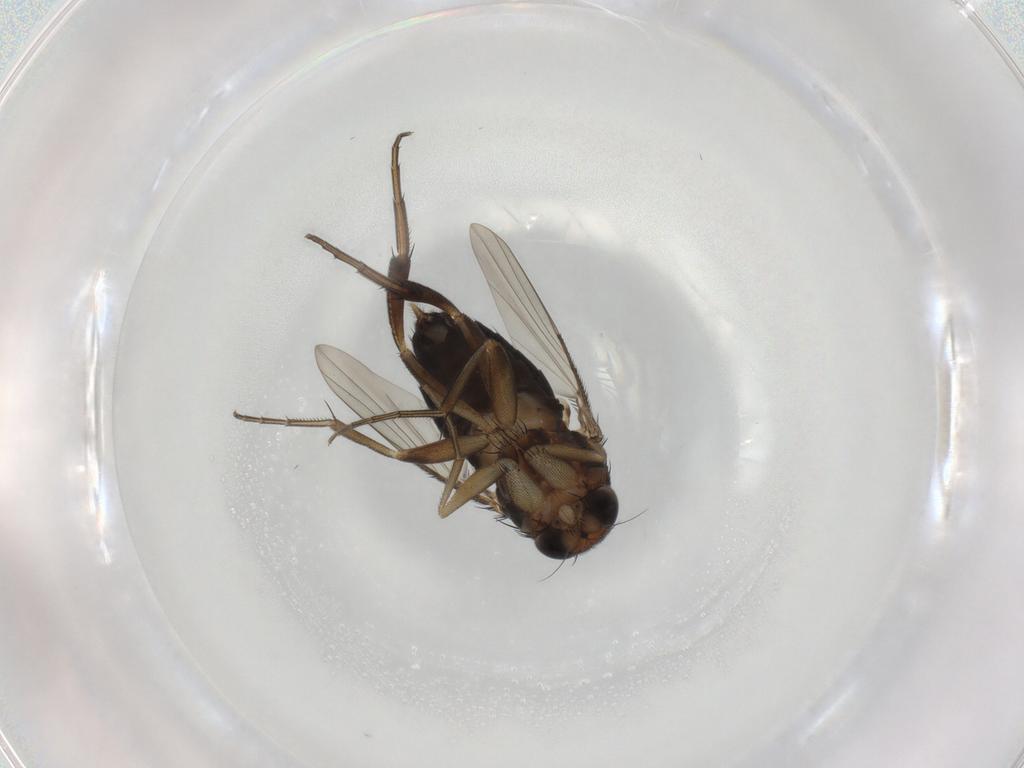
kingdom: Animalia
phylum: Arthropoda
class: Insecta
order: Diptera
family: Phoridae
